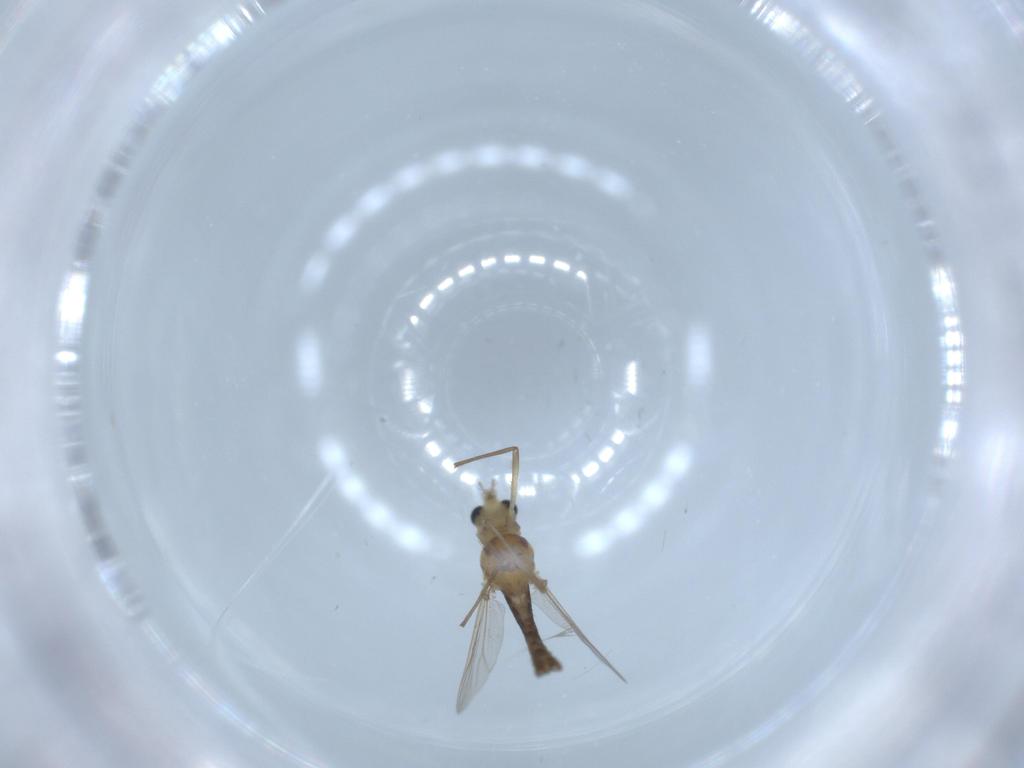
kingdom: Animalia
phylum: Arthropoda
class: Insecta
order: Diptera
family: Chironomidae
